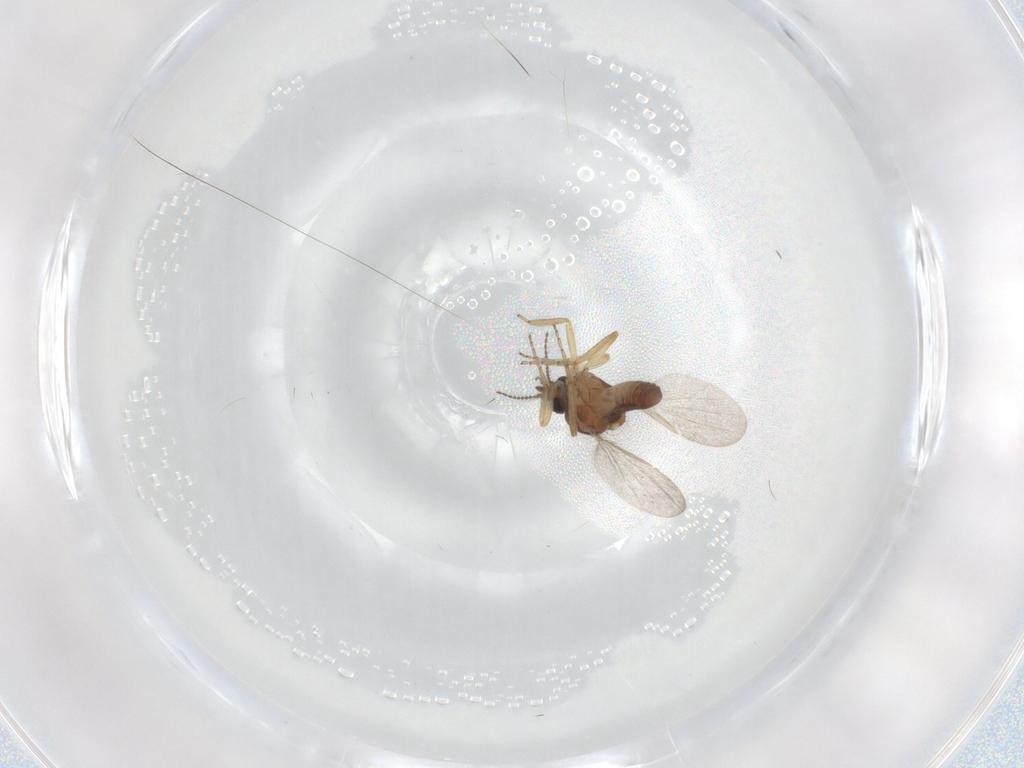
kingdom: Animalia
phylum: Arthropoda
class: Insecta
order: Diptera
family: Ceratopogonidae
